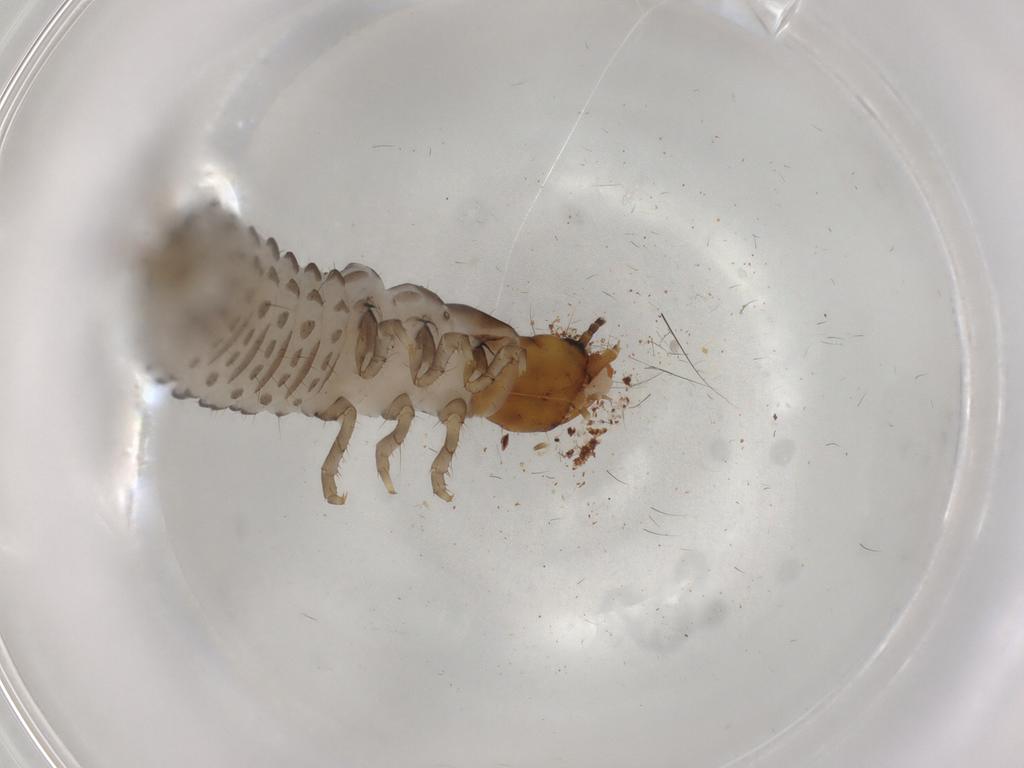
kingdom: Animalia
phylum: Arthropoda
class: Insecta
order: Coleoptera
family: Carabidae
